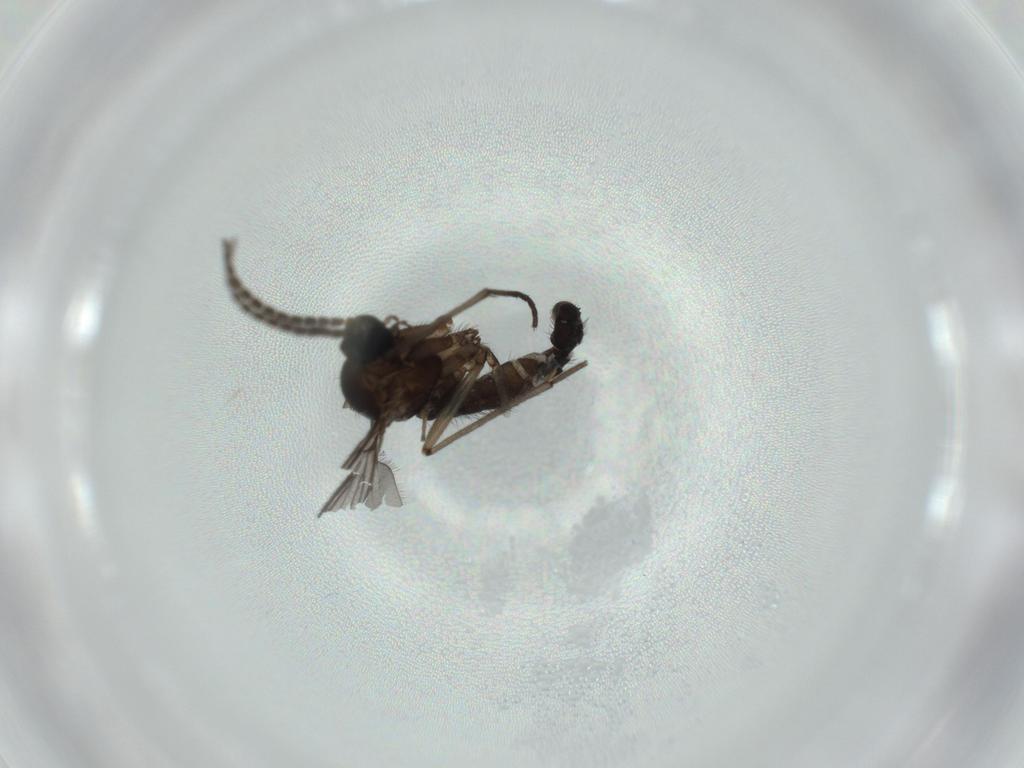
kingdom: Animalia
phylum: Arthropoda
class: Insecta
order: Diptera
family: Sciaridae
